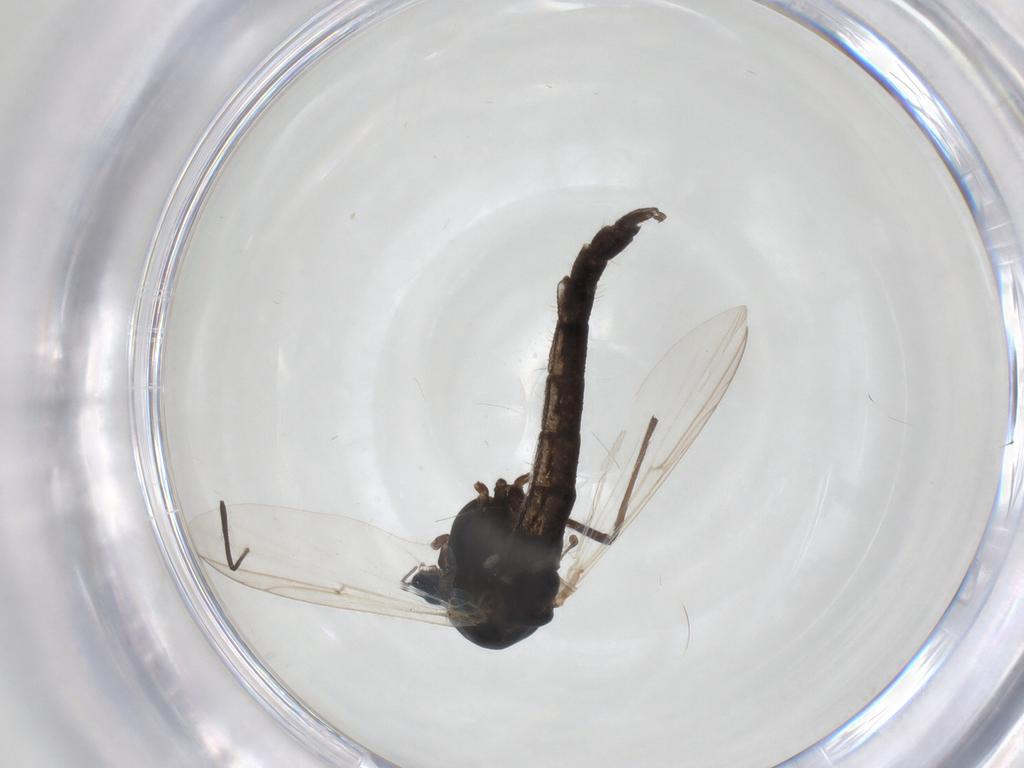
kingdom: Animalia
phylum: Arthropoda
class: Insecta
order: Diptera
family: Chironomidae
